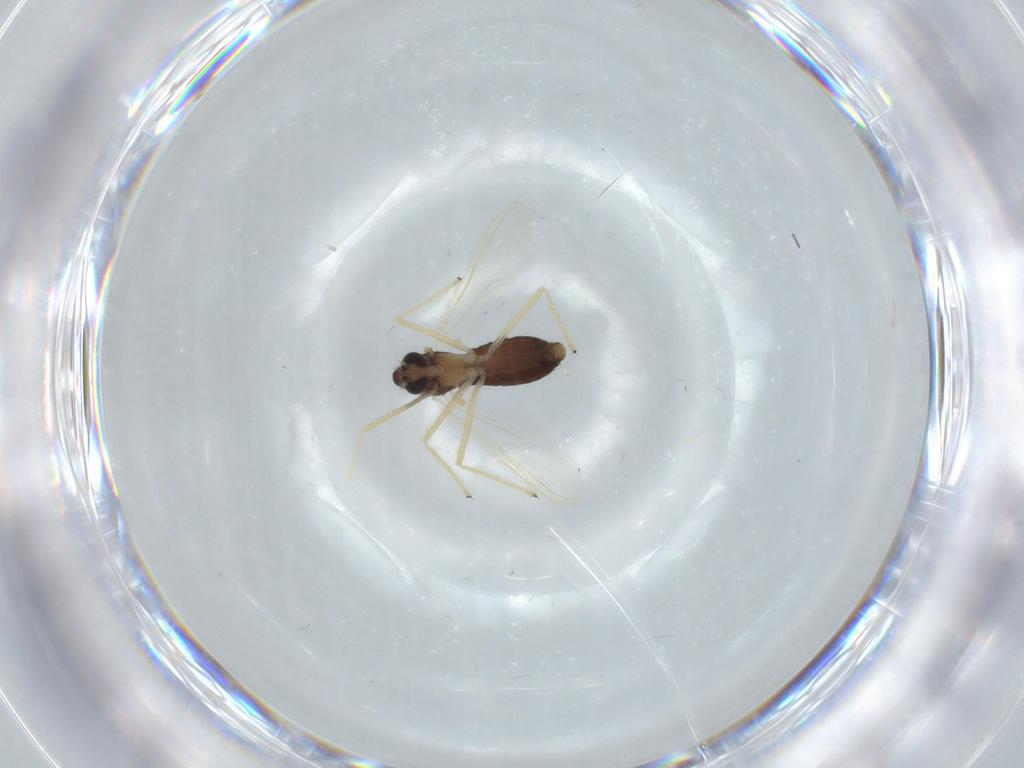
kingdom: Animalia
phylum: Arthropoda
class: Insecta
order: Diptera
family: Chironomidae
